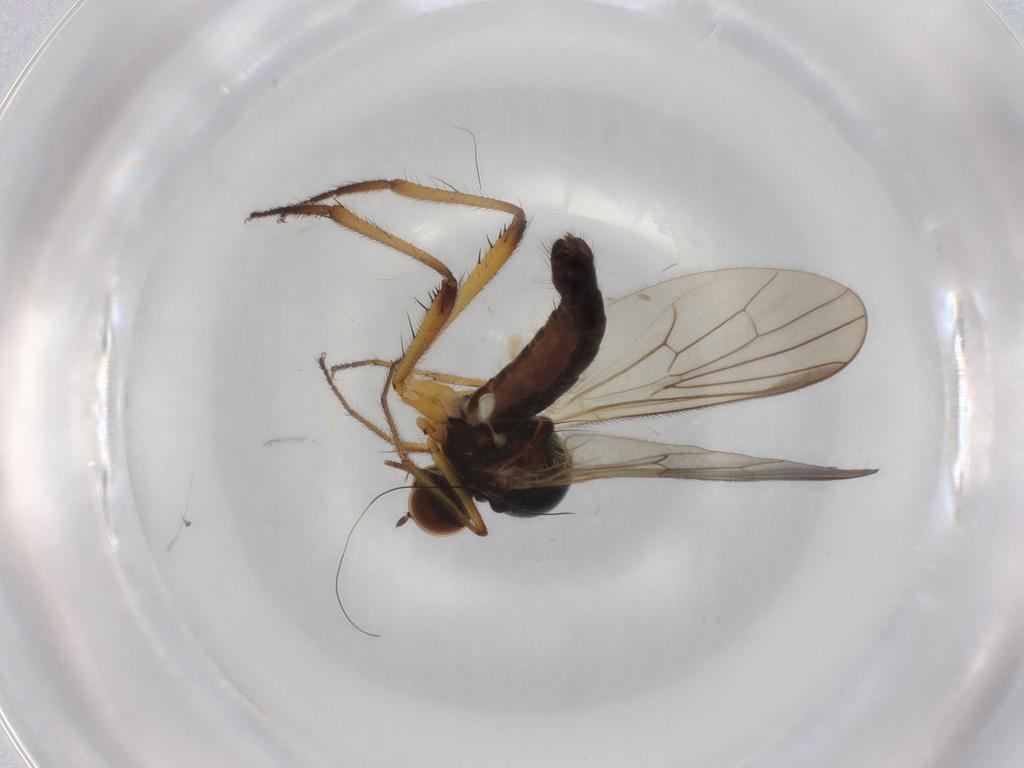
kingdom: Animalia
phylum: Arthropoda
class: Insecta
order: Diptera
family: Hybotidae
